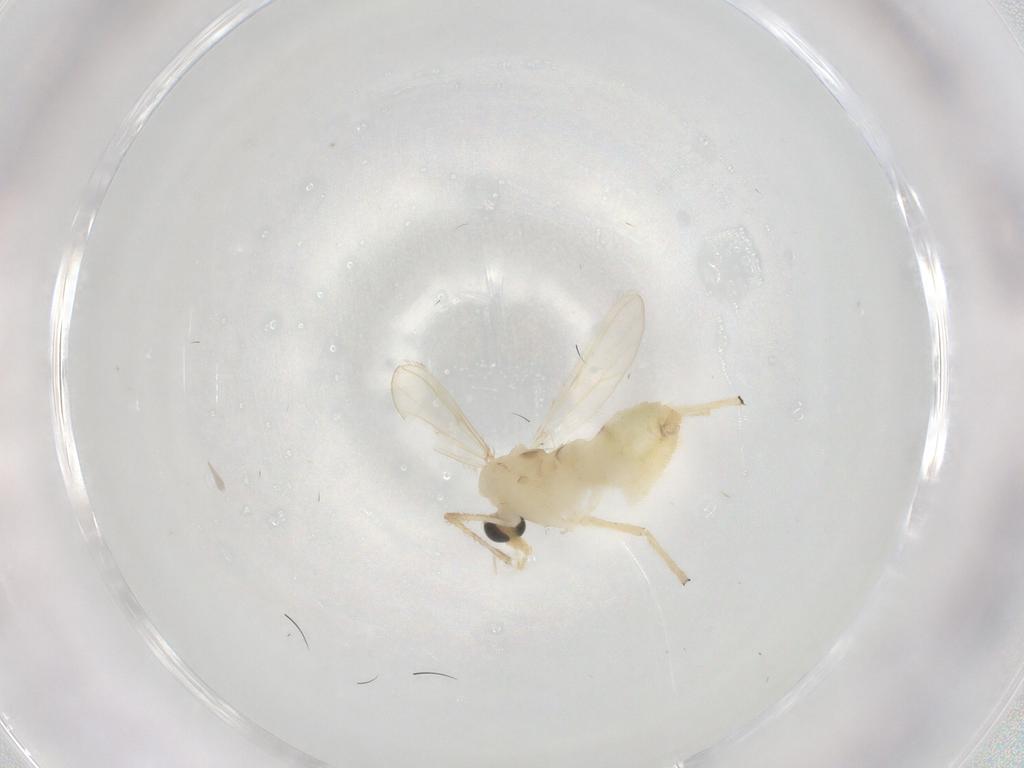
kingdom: Animalia
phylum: Arthropoda
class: Insecta
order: Diptera
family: Chironomidae
